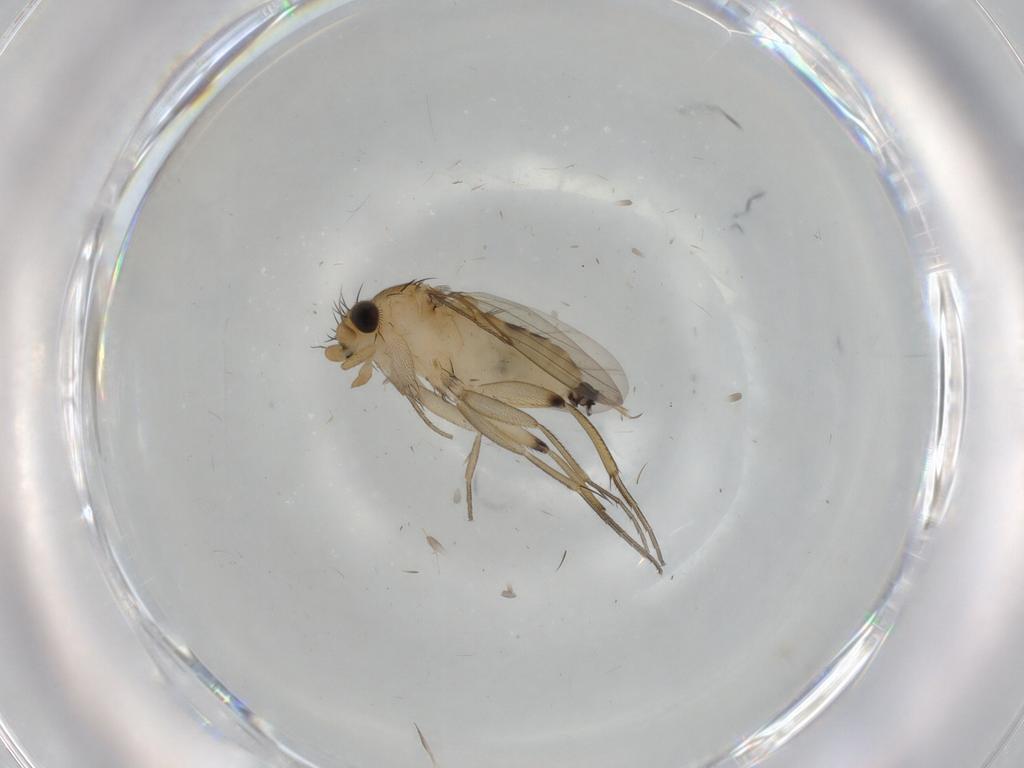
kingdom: Animalia
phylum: Arthropoda
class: Insecta
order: Diptera
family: Phoridae
